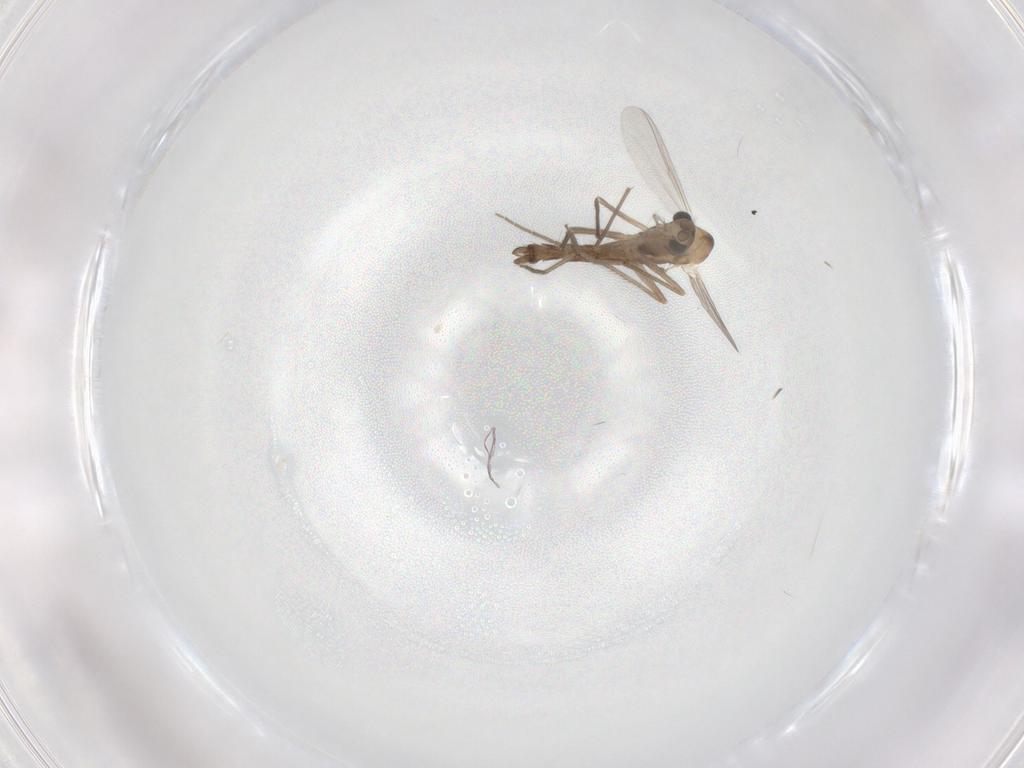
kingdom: Animalia
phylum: Arthropoda
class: Insecta
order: Diptera
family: Chironomidae
